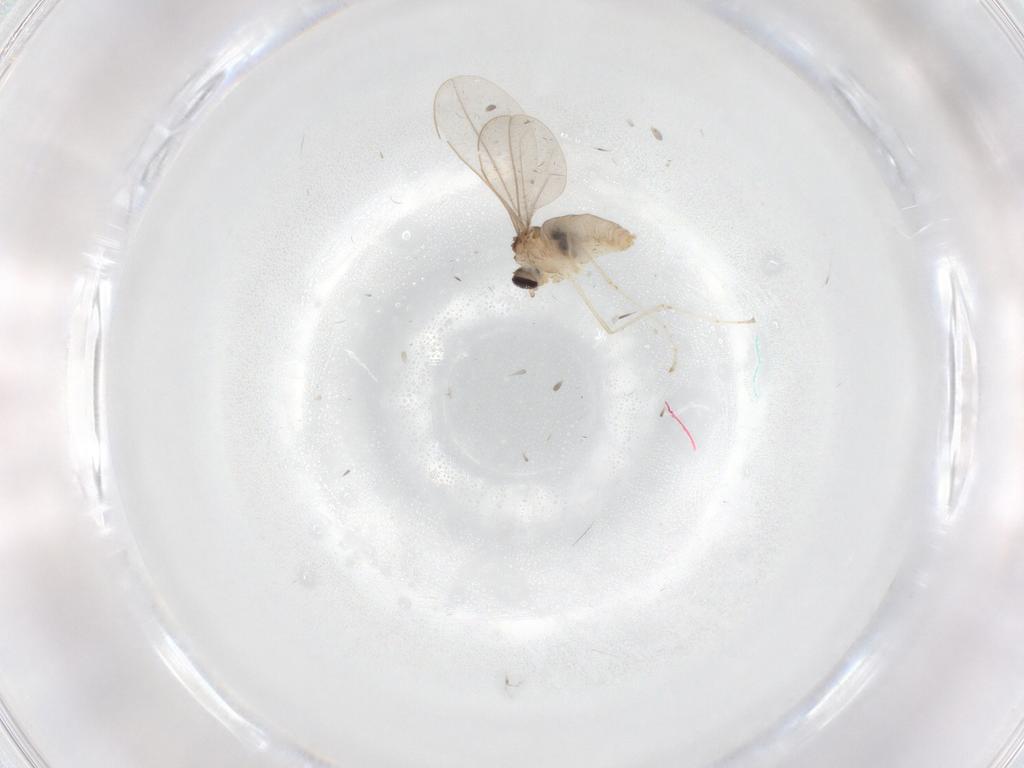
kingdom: Animalia
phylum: Arthropoda
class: Insecta
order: Diptera
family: Cecidomyiidae
